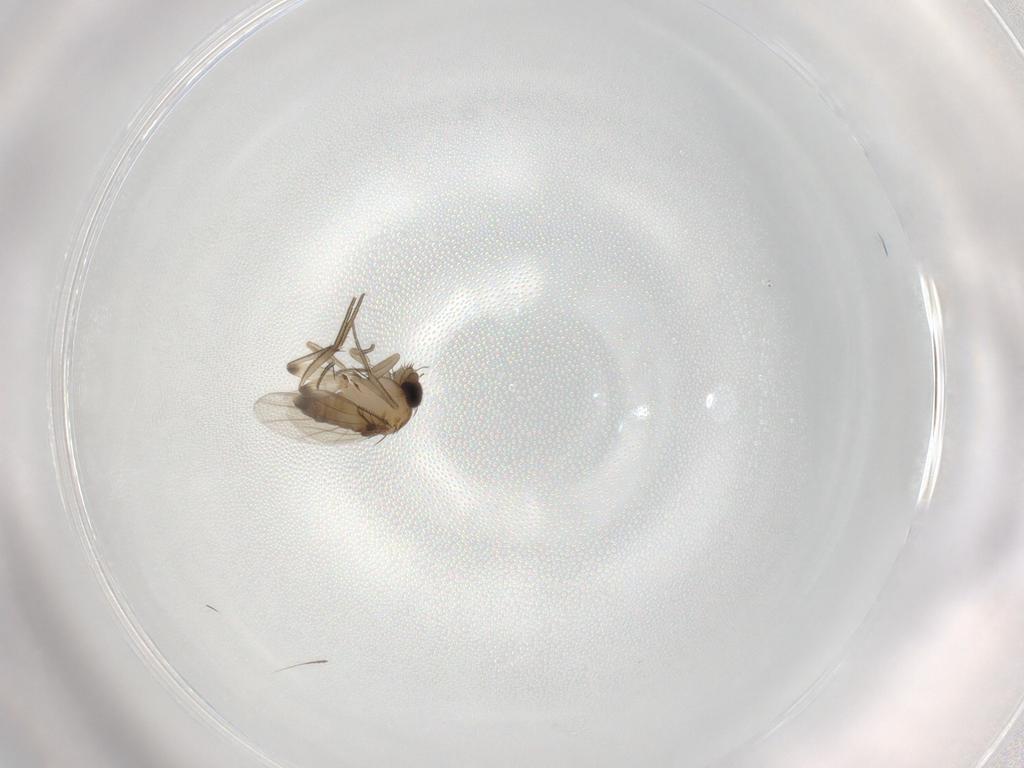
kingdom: Animalia
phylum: Arthropoda
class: Insecta
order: Diptera
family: Phoridae
